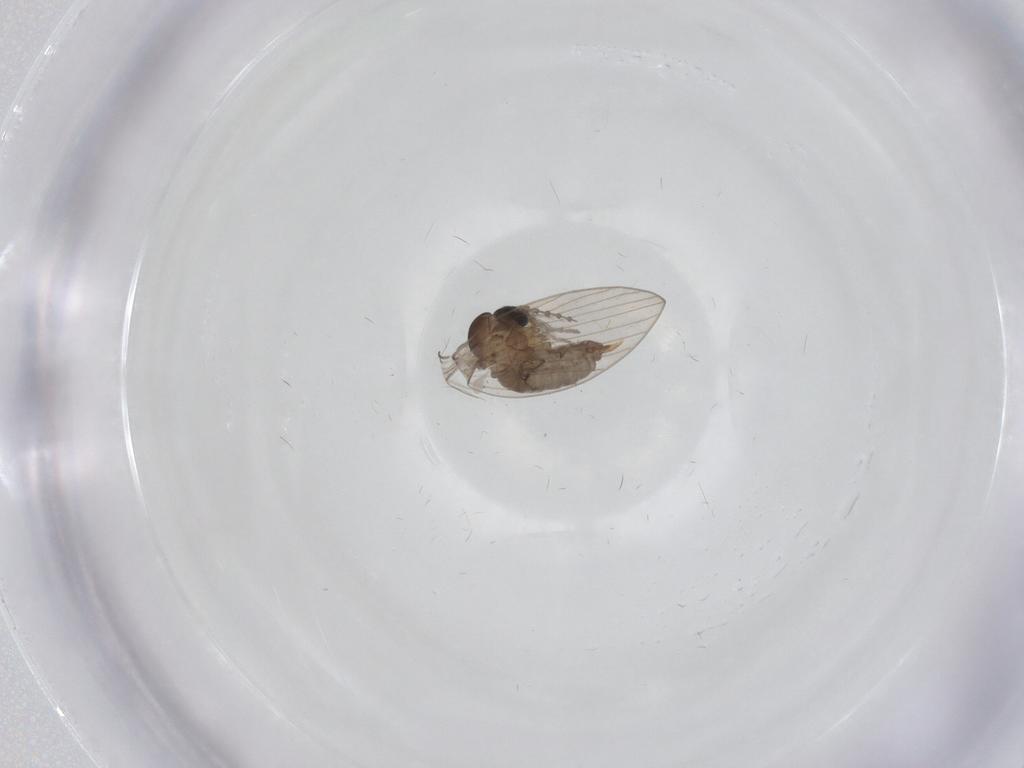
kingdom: Animalia
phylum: Arthropoda
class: Insecta
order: Diptera
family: Psychodidae
